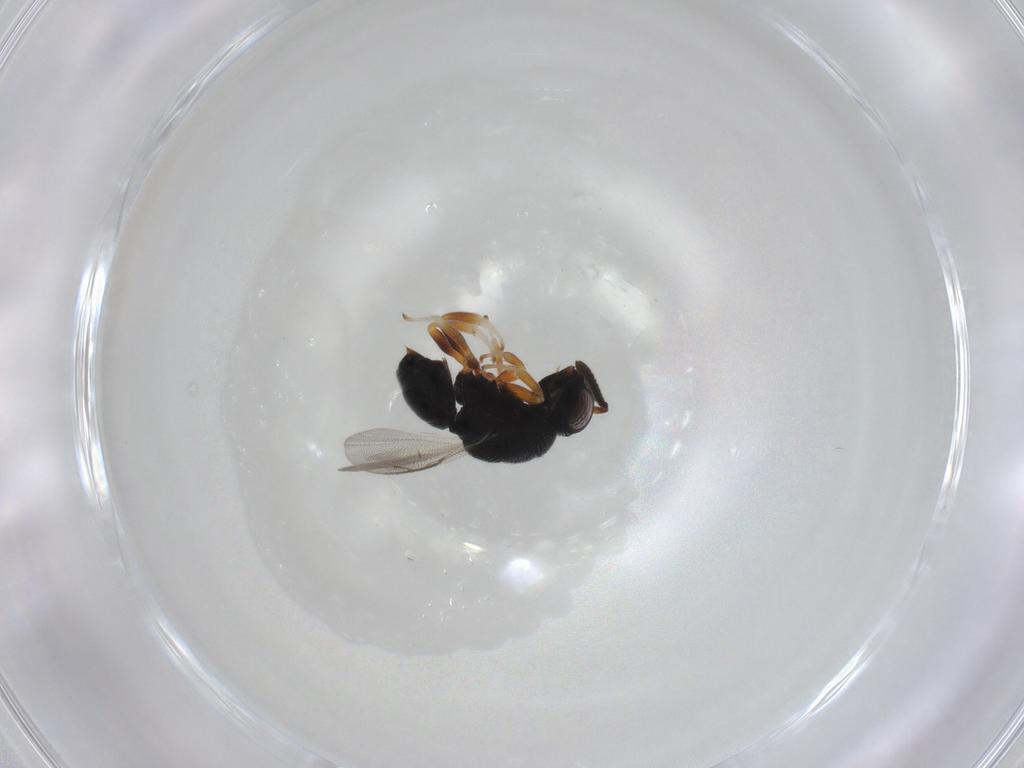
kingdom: Animalia
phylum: Arthropoda
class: Insecta
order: Hymenoptera
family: Eurytomidae
